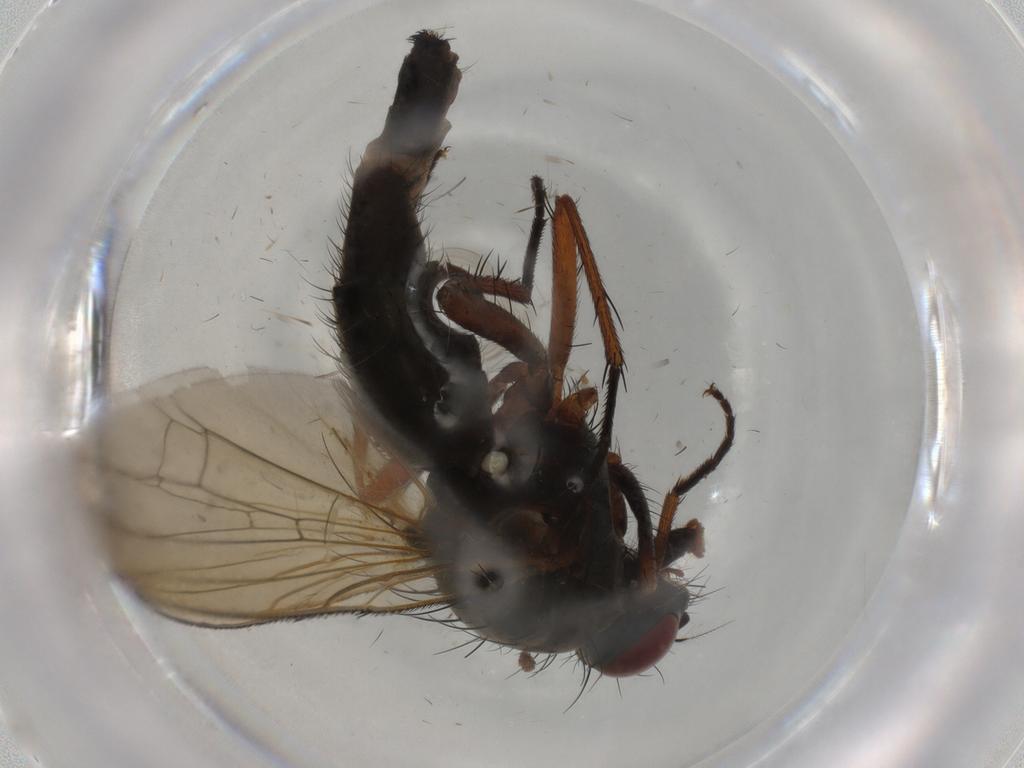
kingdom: Animalia
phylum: Arthropoda
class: Insecta
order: Diptera
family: Anthomyiidae
